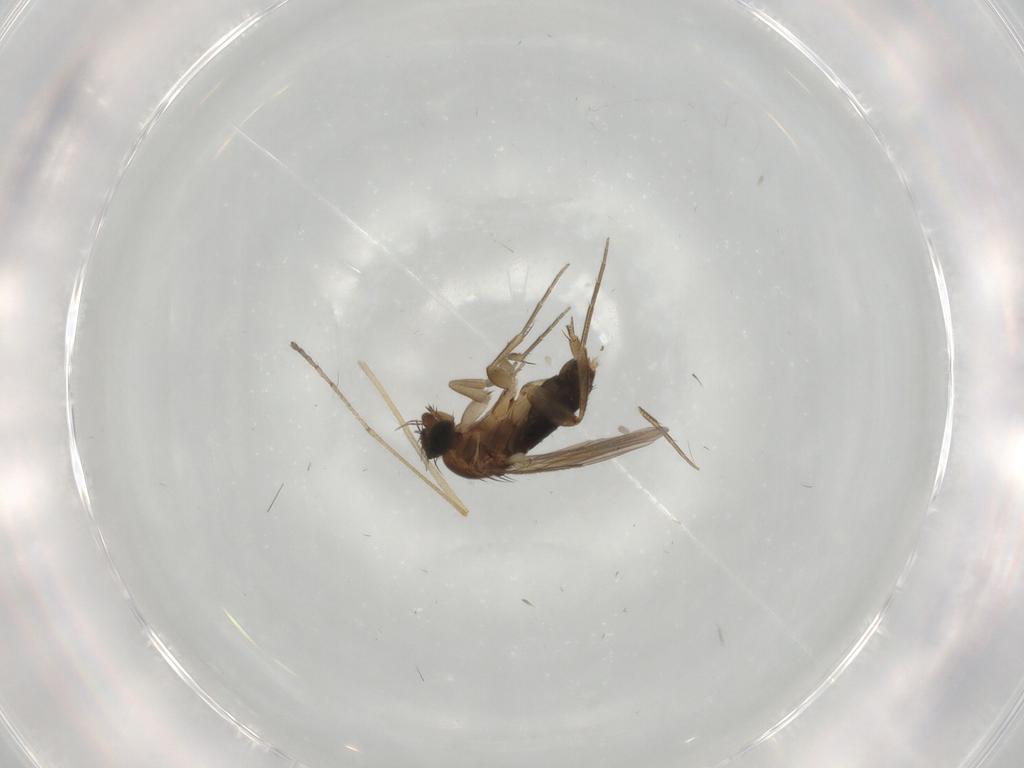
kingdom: Animalia
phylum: Arthropoda
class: Insecta
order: Diptera
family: Phoridae
